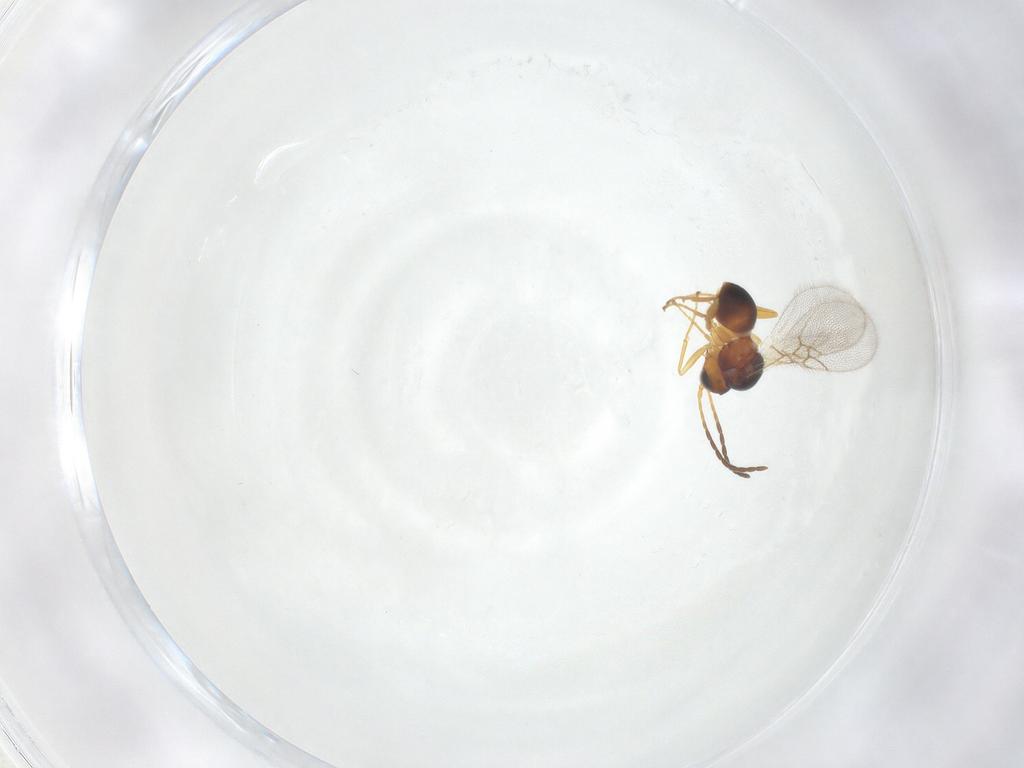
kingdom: Animalia
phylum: Arthropoda
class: Insecta
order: Hymenoptera
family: Figitidae
